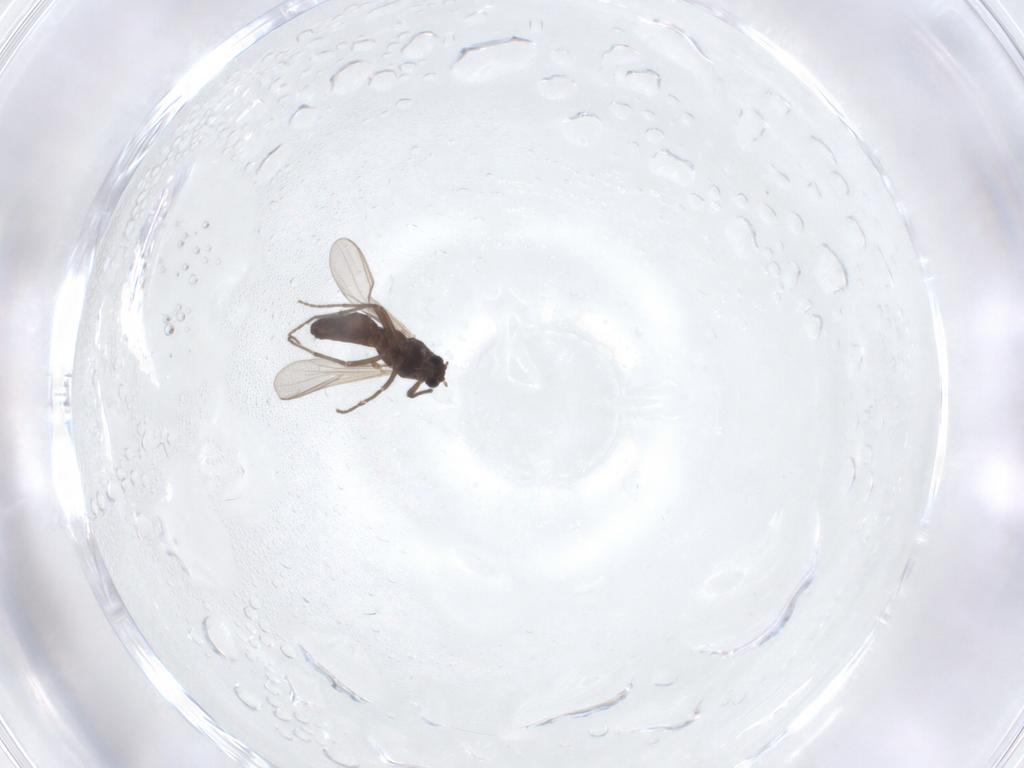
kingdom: Animalia
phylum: Arthropoda
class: Insecta
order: Diptera
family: Chironomidae
